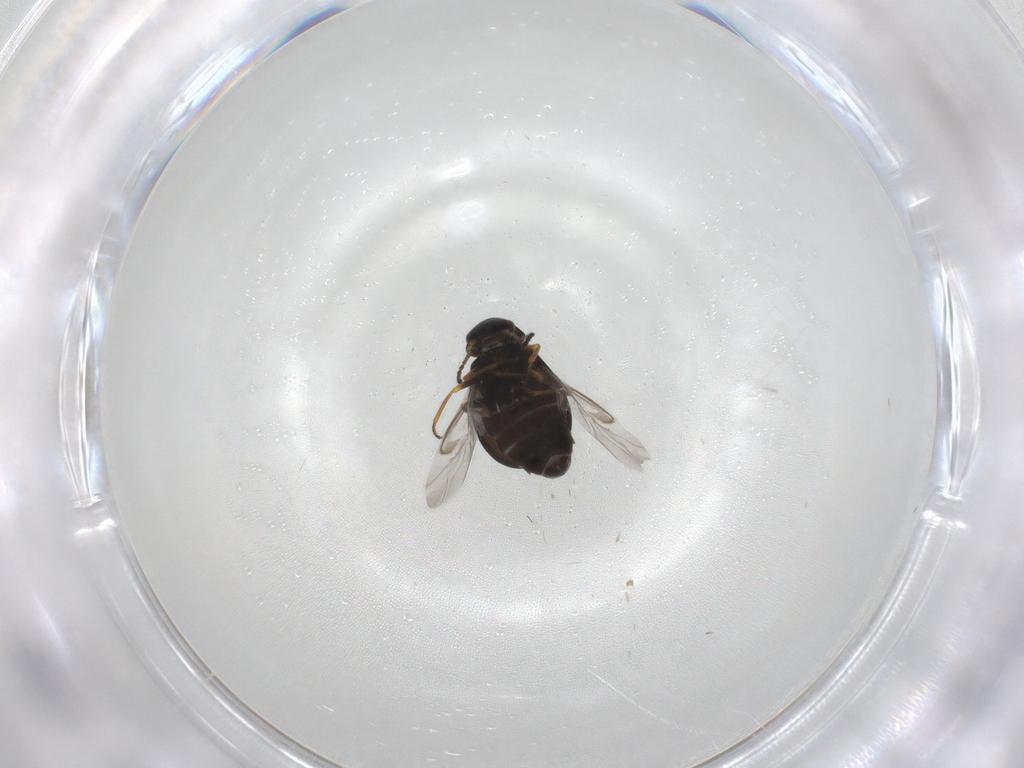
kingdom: Animalia
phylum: Arthropoda
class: Insecta
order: Coleoptera
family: Melyridae
